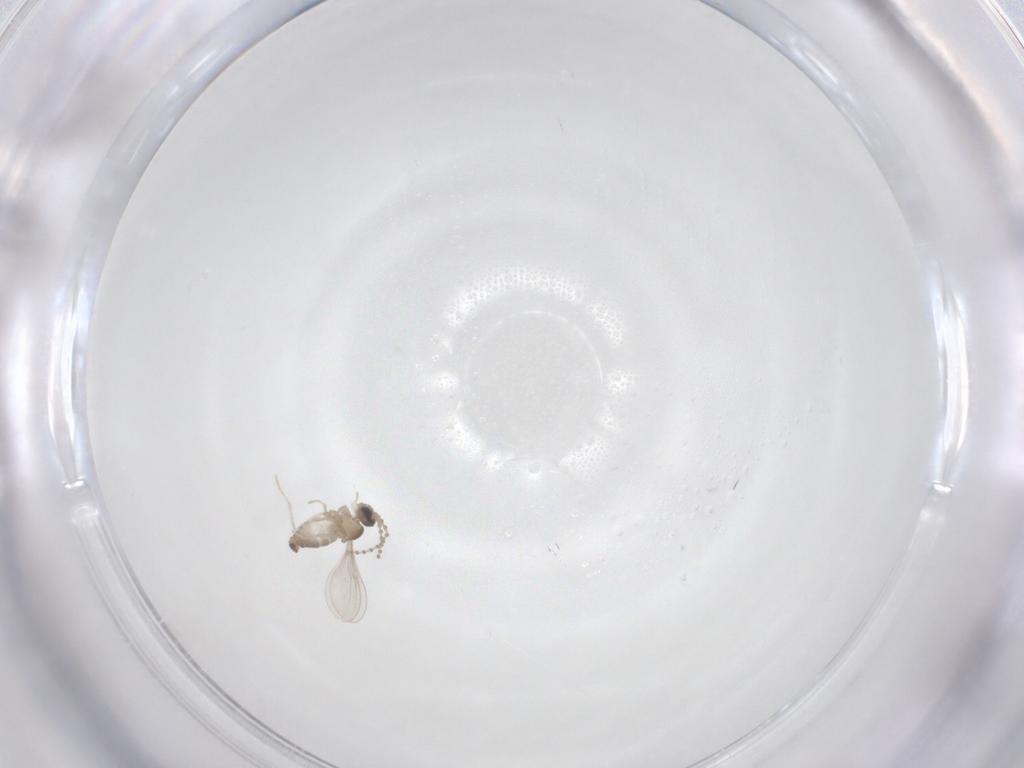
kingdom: Animalia
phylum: Arthropoda
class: Insecta
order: Diptera
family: Cecidomyiidae
